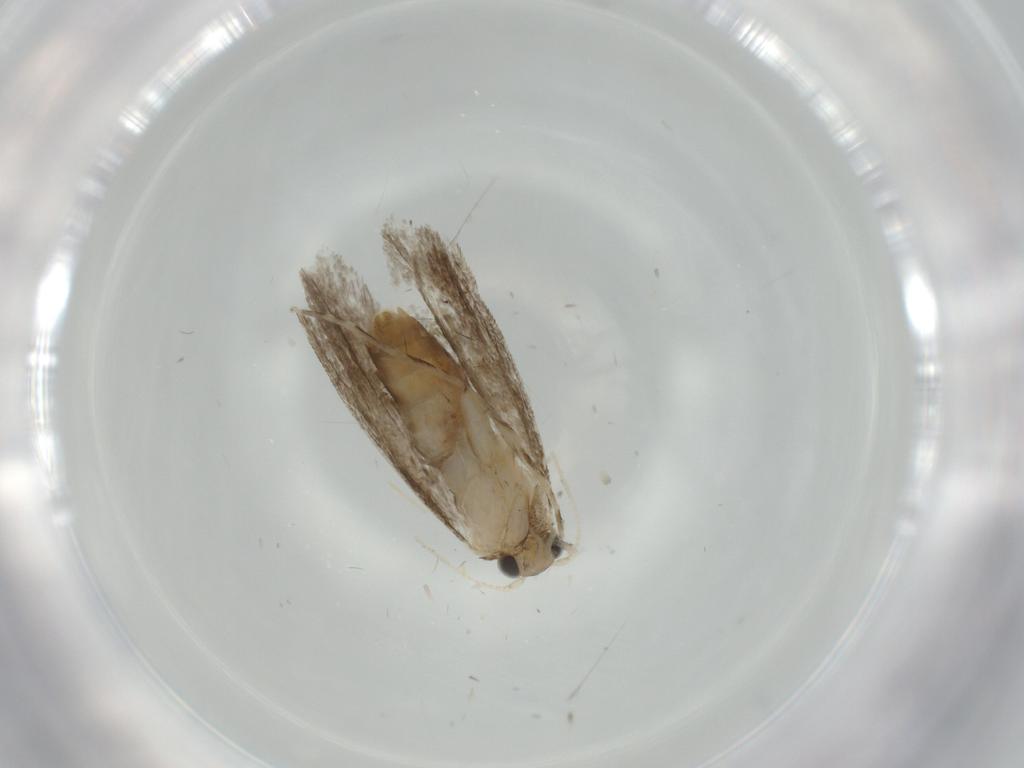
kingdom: Animalia
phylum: Arthropoda
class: Insecta
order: Lepidoptera
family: Tineidae
